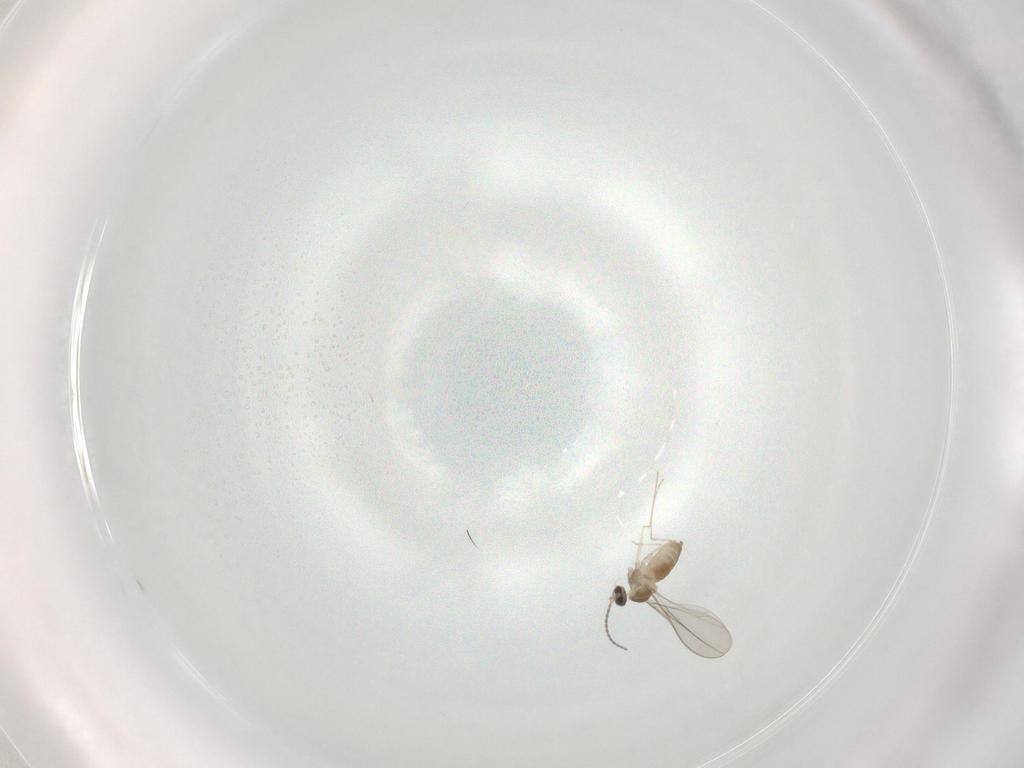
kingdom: Animalia
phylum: Arthropoda
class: Insecta
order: Diptera
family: Cecidomyiidae
